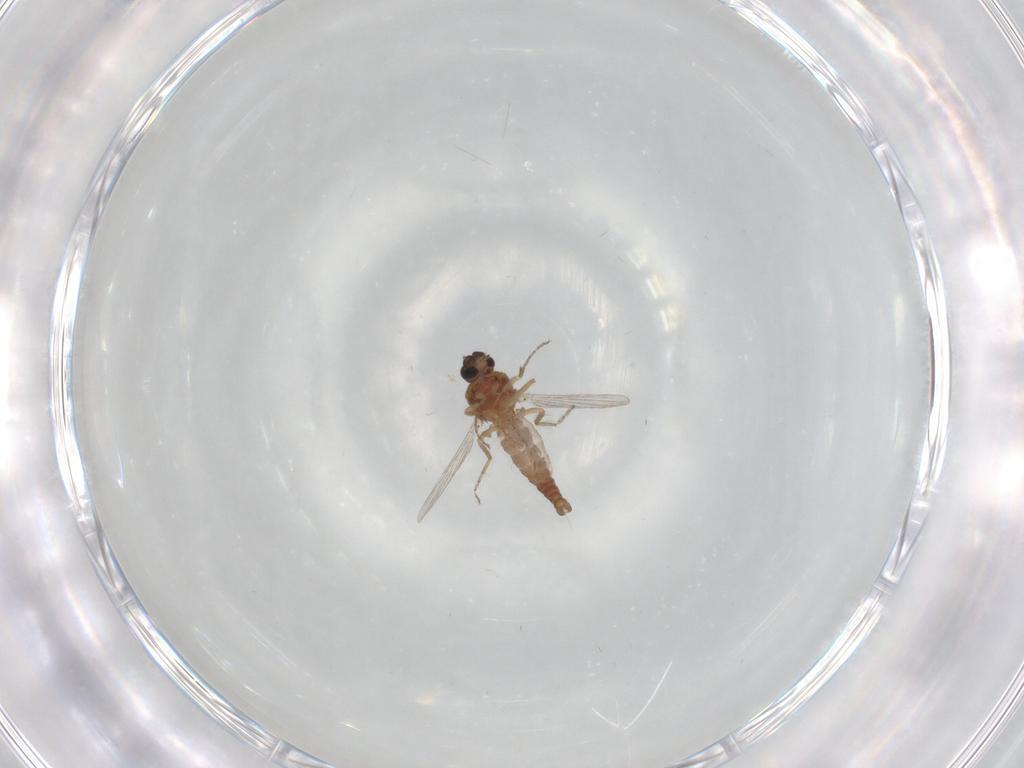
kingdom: Animalia
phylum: Arthropoda
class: Insecta
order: Diptera
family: Ceratopogonidae
